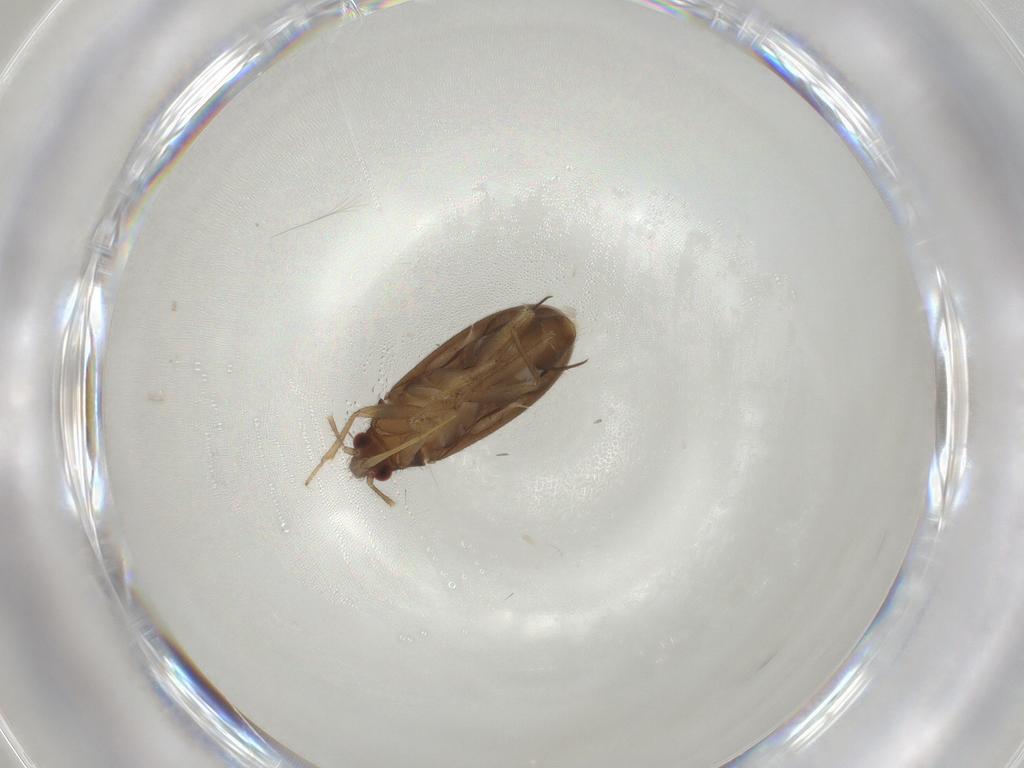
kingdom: Animalia
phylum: Arthropoda
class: Insecta
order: Hemiptera
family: Ceratocombidae
